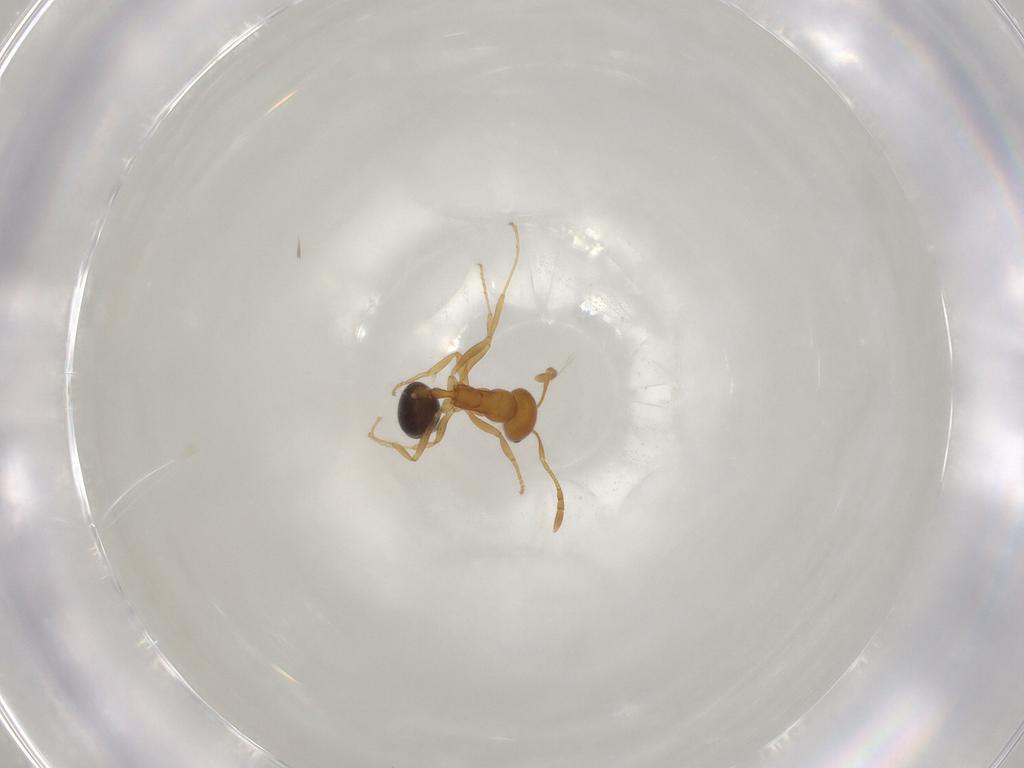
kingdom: Animalia
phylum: Arthropoda
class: Insecta
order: Hymenoptera
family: Formicidae
